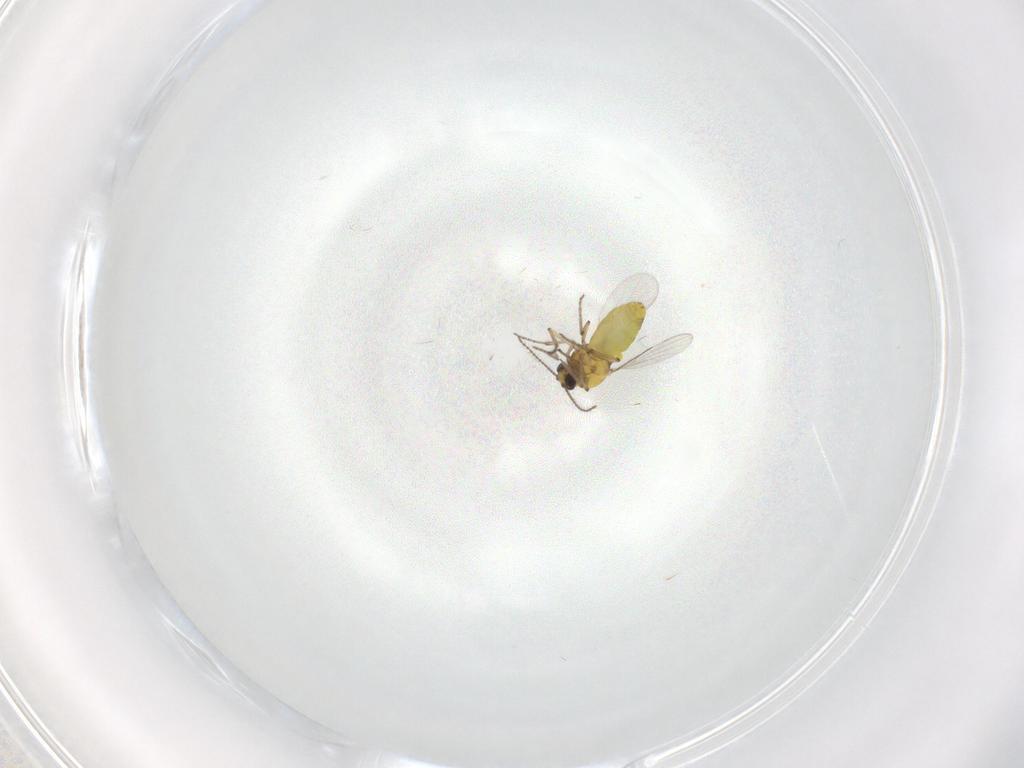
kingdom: Animalia
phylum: Arthropoda
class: Insecta
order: Diptera
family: Ceratopogonidae
